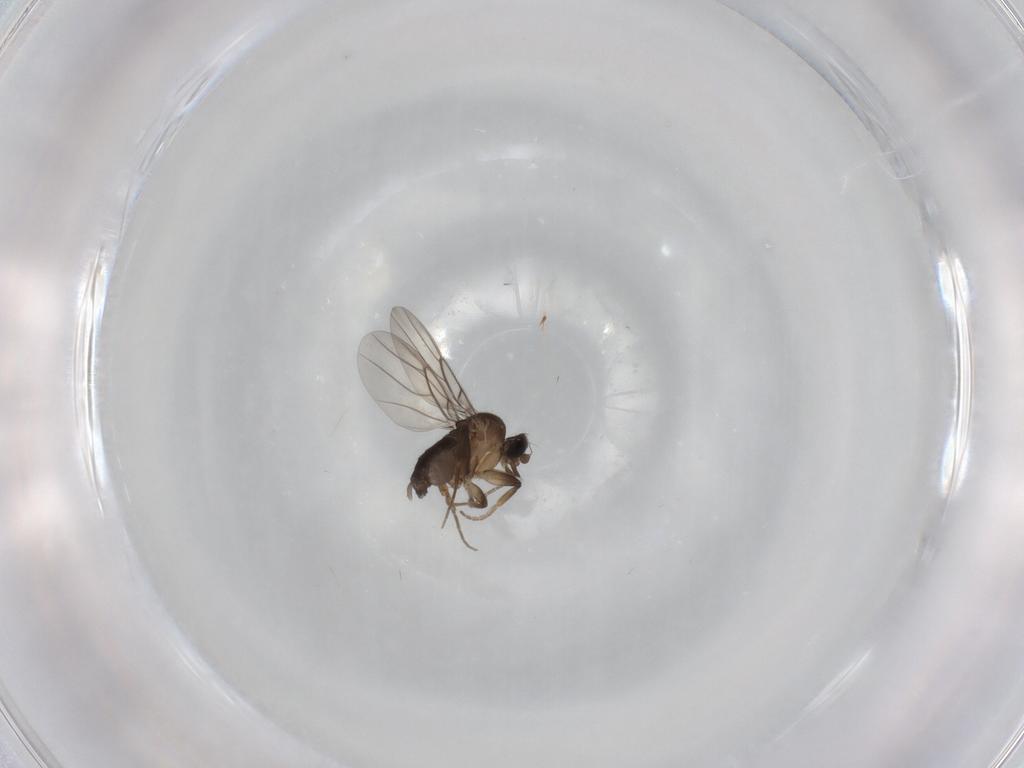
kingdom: Animalia
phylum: Arthropoda
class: Insecta
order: Diptera
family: Chironomidae
